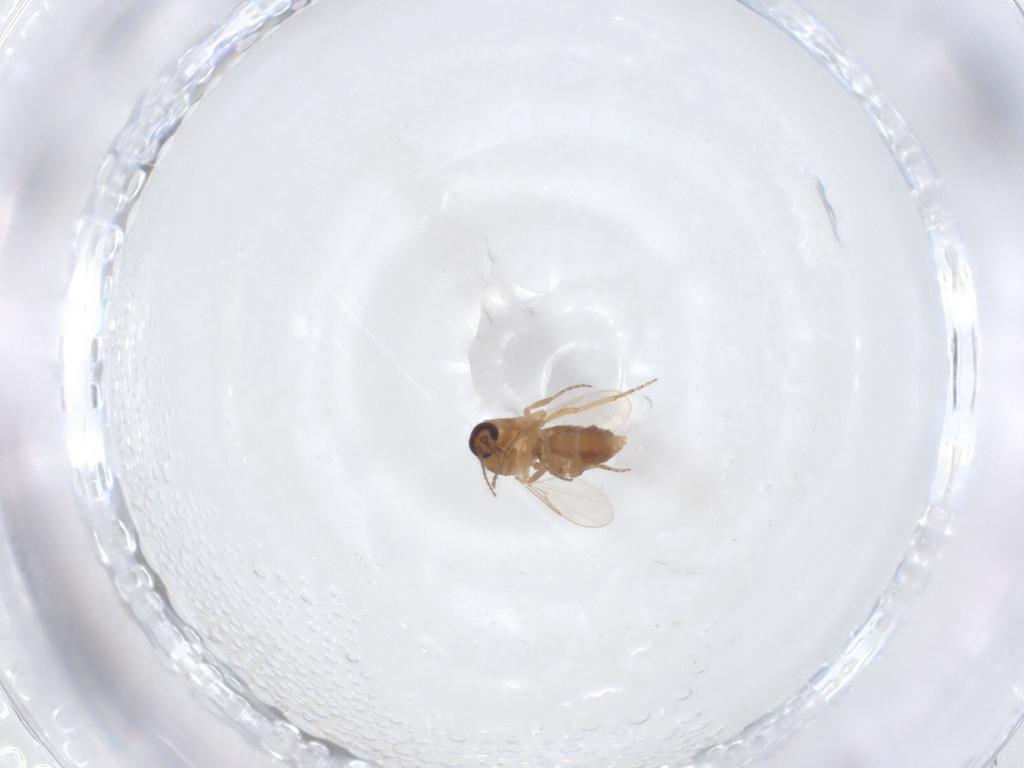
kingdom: Animalia
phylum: Arthropoda
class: Insecta
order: Diptera
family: Ceratopogonidae
